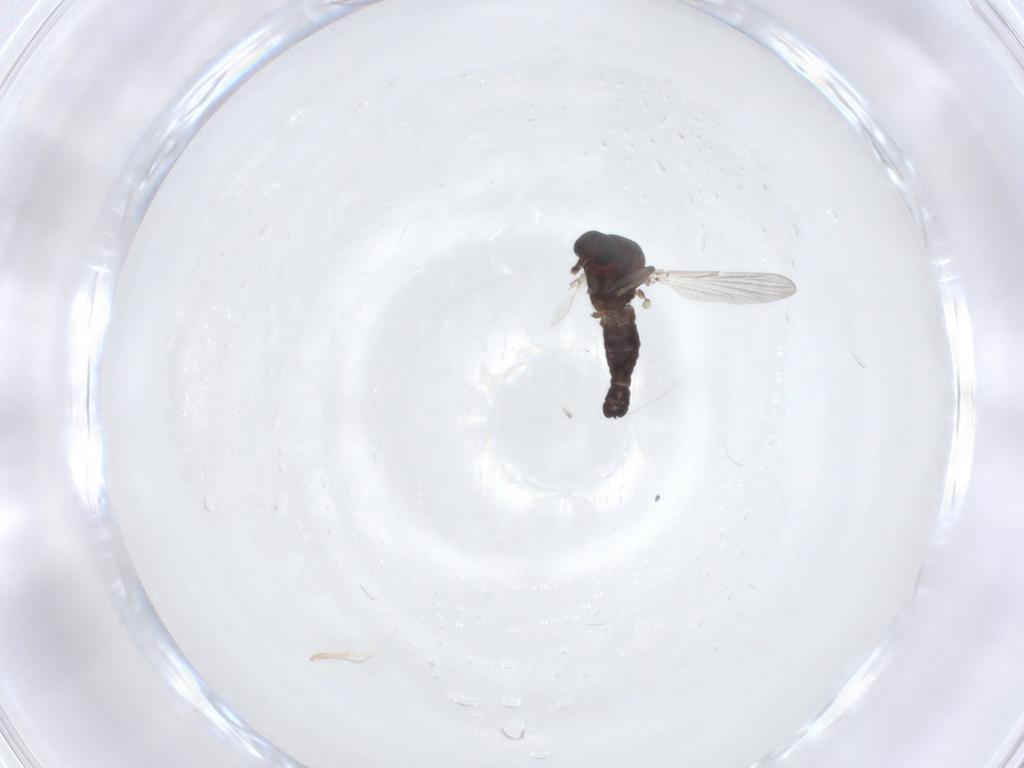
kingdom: Animalia
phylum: Arthropoda
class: Insecta
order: Diptera
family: Ceratopogonidae
